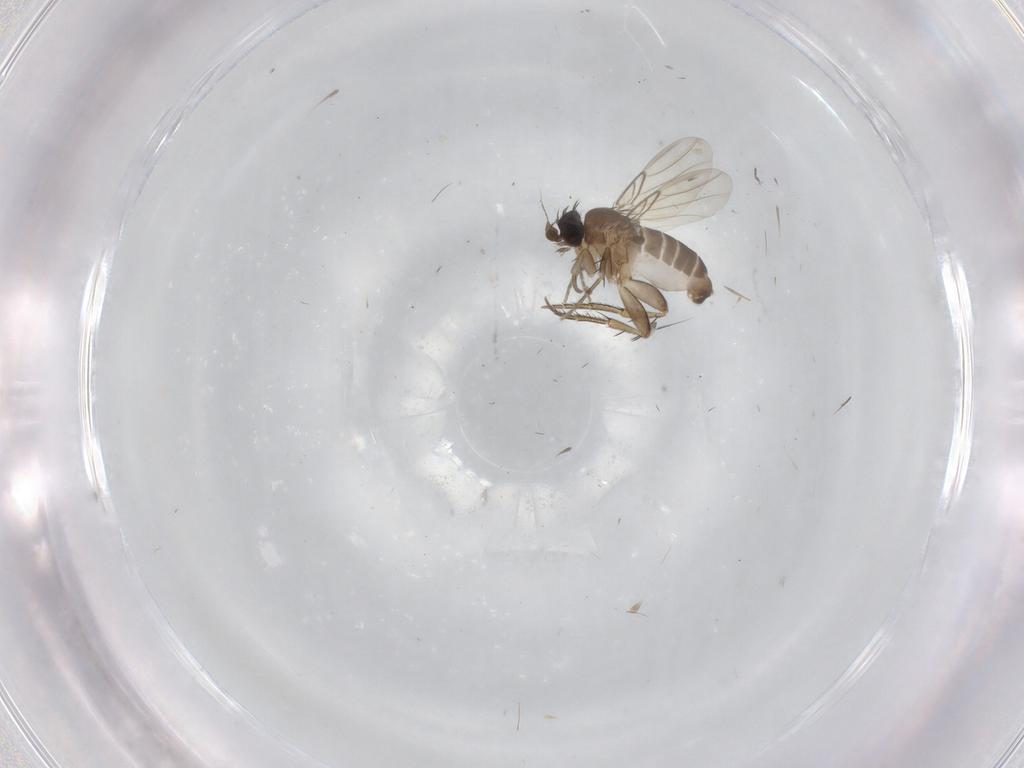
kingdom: Animalia
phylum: Arthropoda
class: Insecta
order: Diptera
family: Chironomidae
